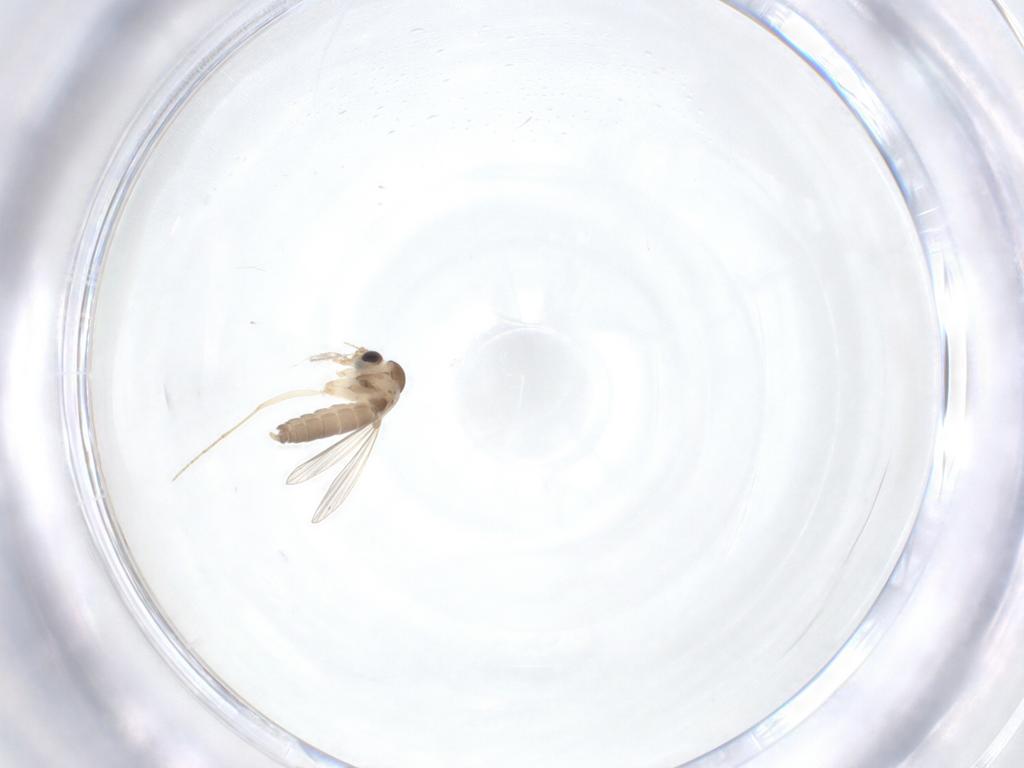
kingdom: Animalia
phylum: Arthropoda
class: Insecta
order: Diptera
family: Psychodidae
